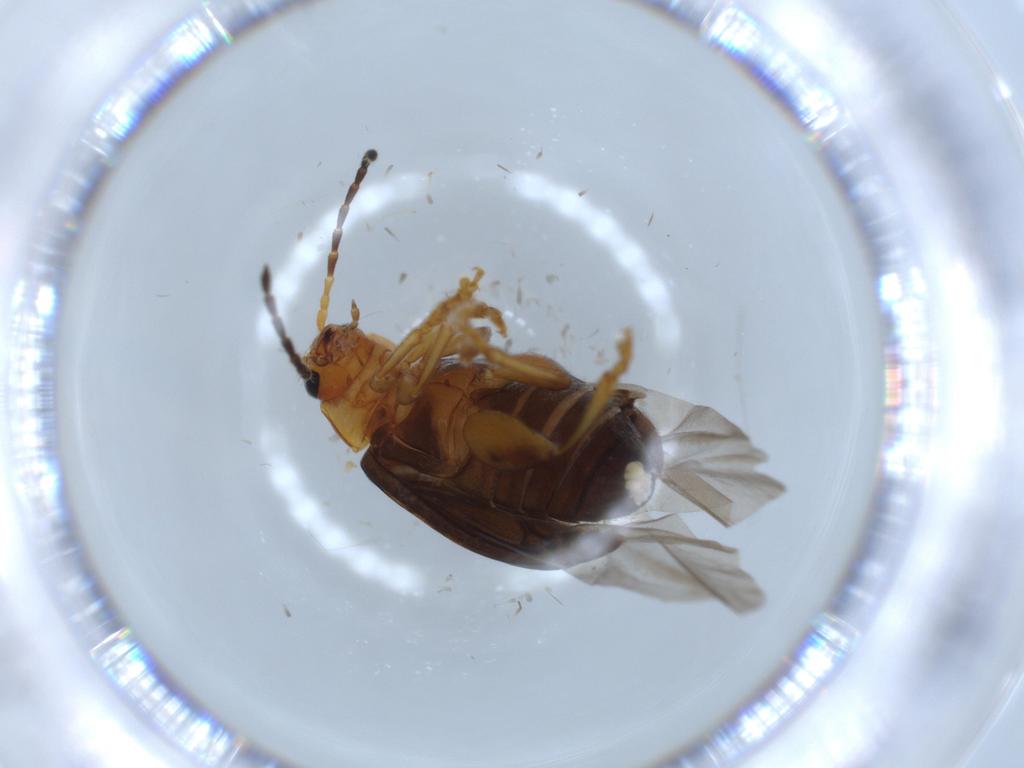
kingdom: Animalia
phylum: Arthropoda
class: Insecta
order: Coleoptera
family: Chrysomelidae
